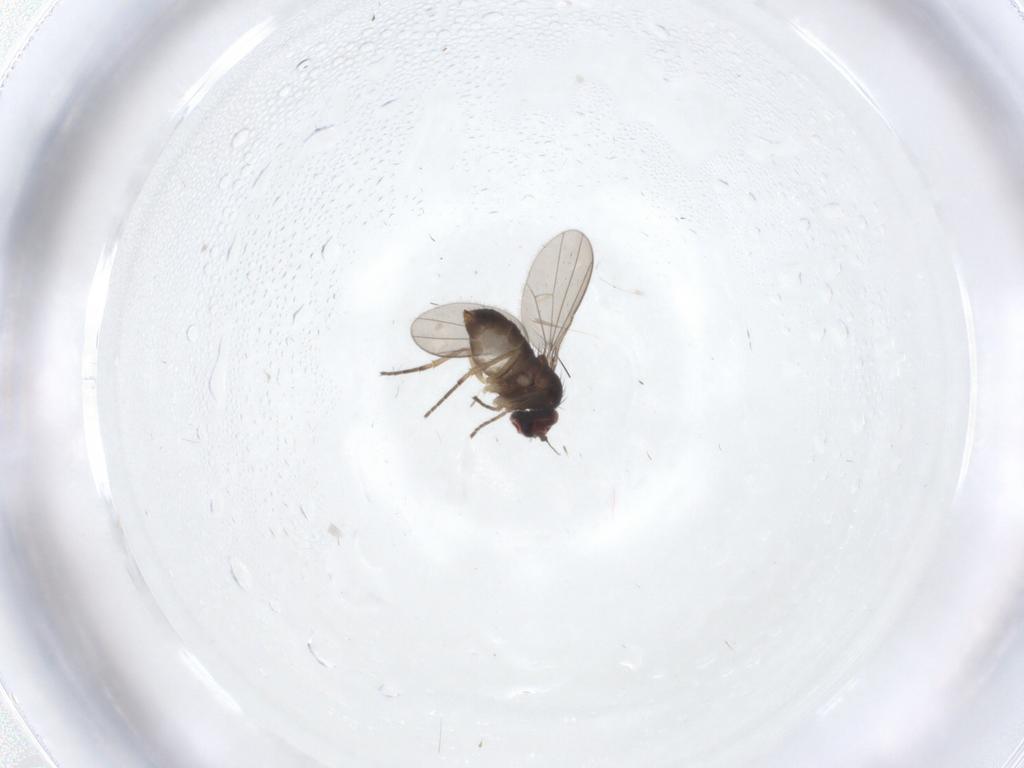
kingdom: Animalia
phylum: Arthropoda
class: Insecta
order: Diptera
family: Dolichopodidae
